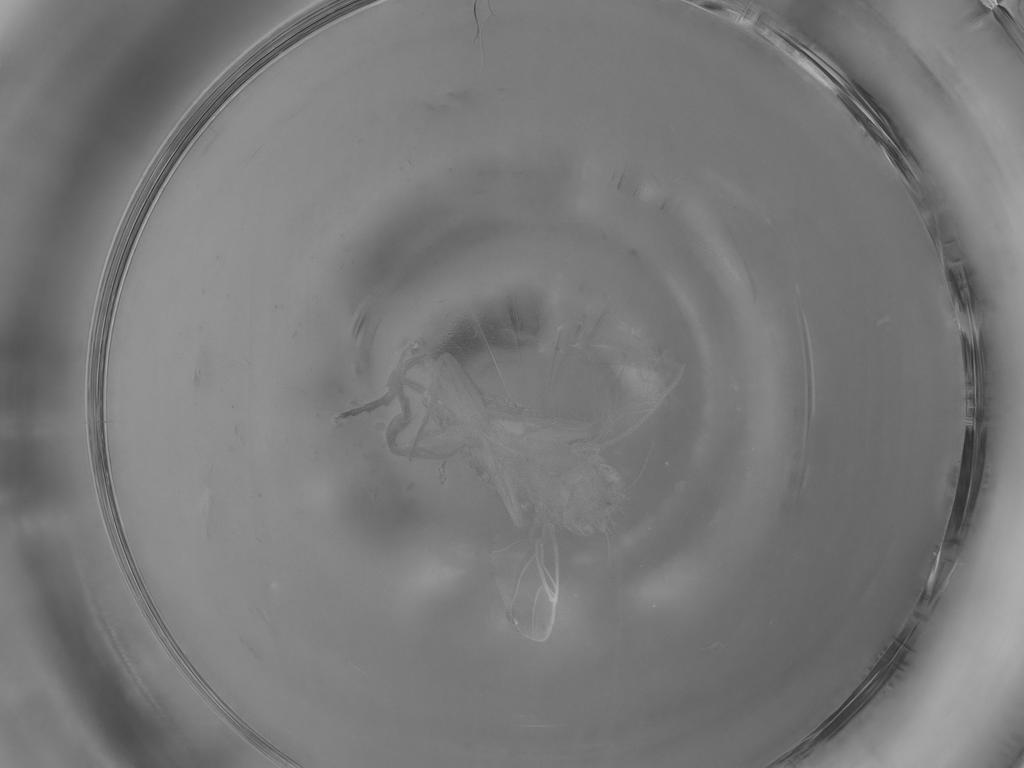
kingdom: Animalia
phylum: Arthropoda
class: Insecta
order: Diptera
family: Phoridae
